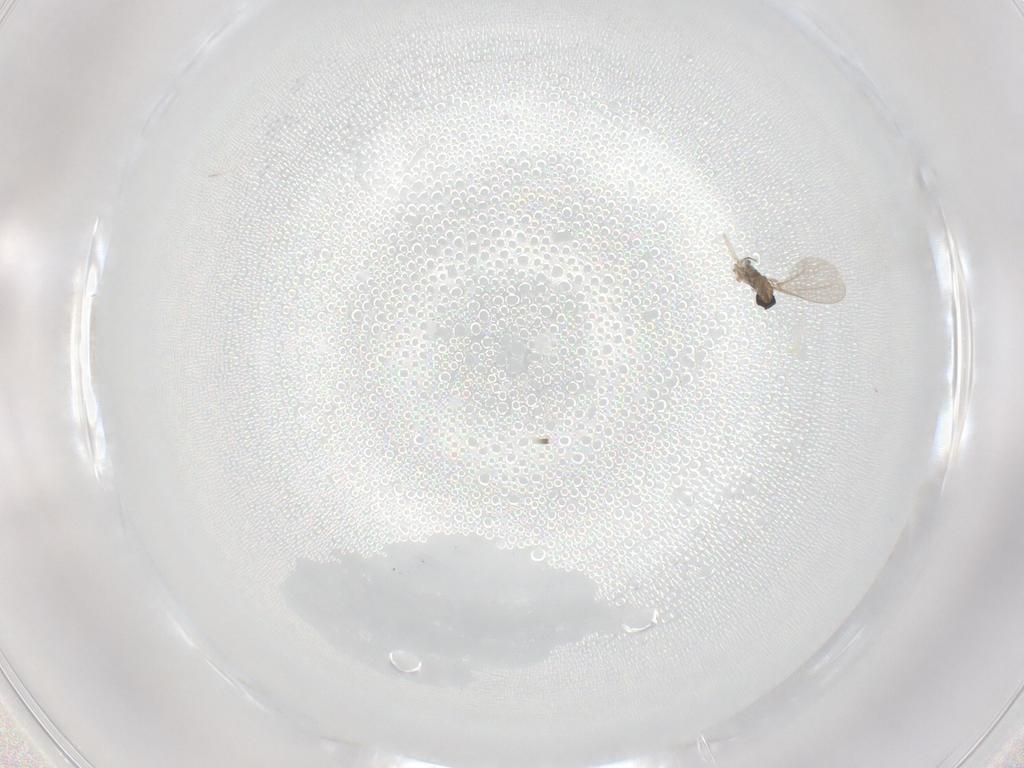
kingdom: Animalia
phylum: Arthropoda
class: Insecta
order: Diptera
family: Cecidomyiidae
